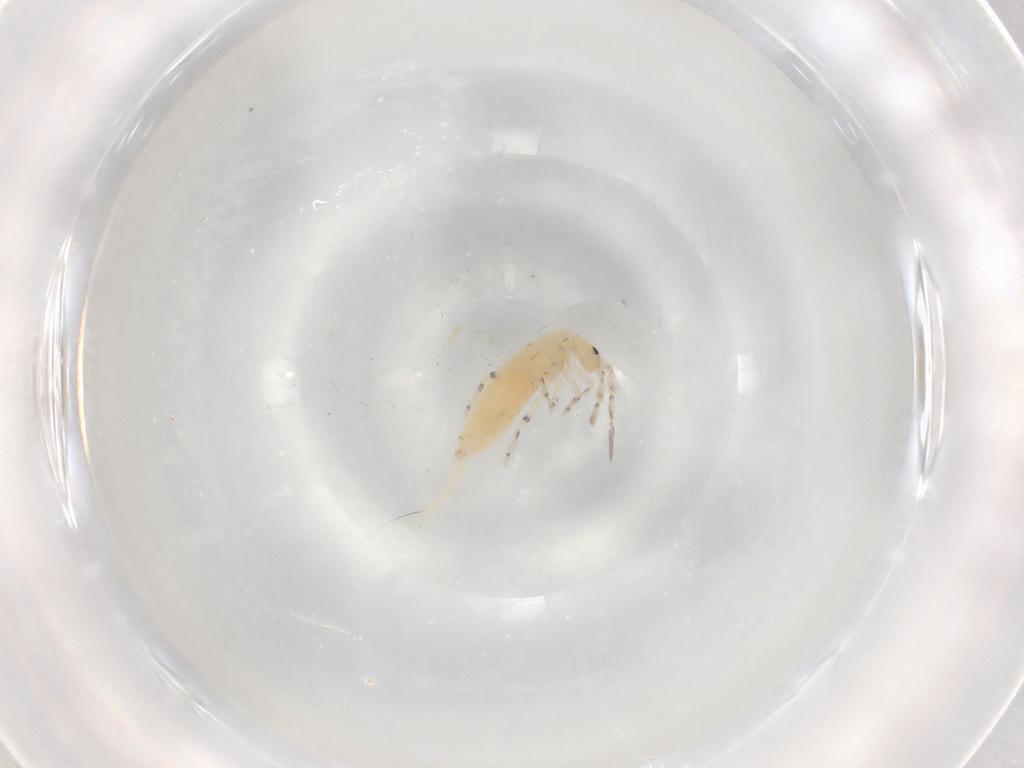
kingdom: Animalia
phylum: Arthropoda
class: Collembola
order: Entomobryomorpha
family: Entomobryidae
